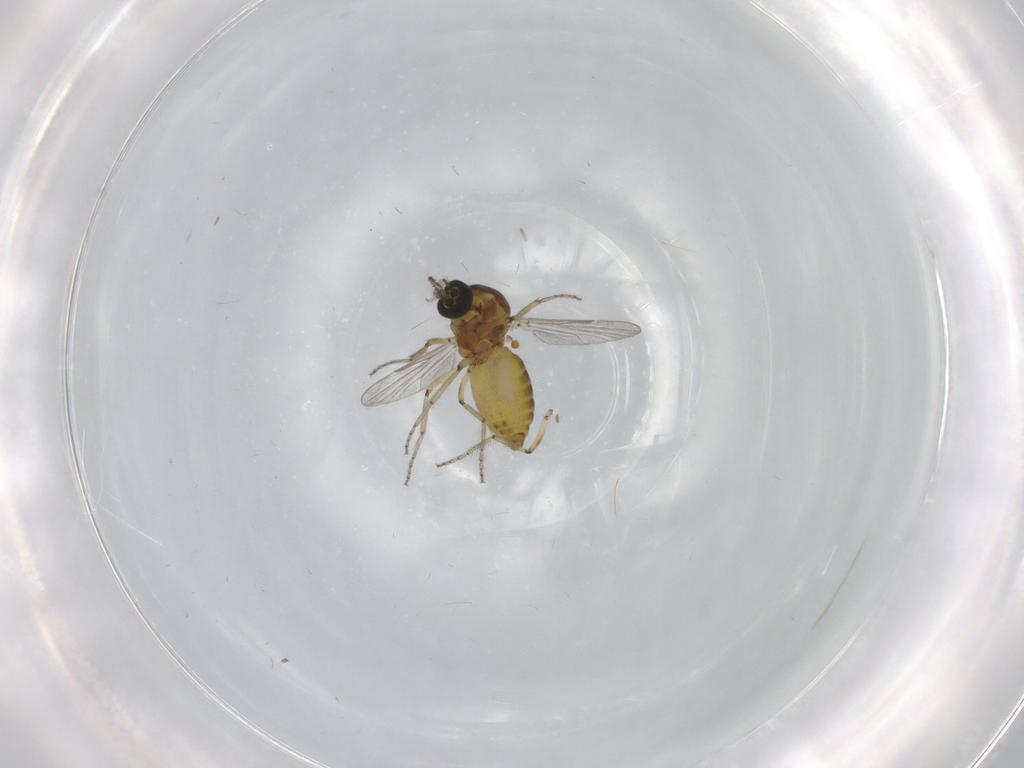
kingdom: Animalia
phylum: Arthropoda
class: Insecta
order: Diptera
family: Ceratopogonidae
